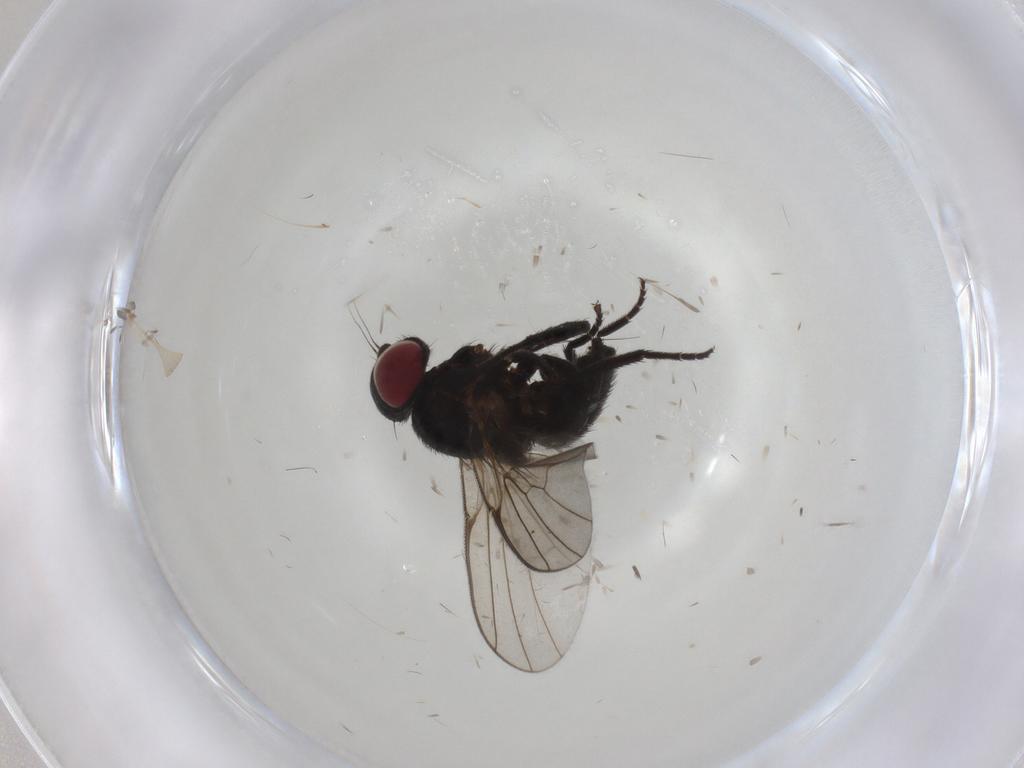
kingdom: Animalia
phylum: Arthropoda
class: Insecta
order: Diptera
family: Agromyzidae
